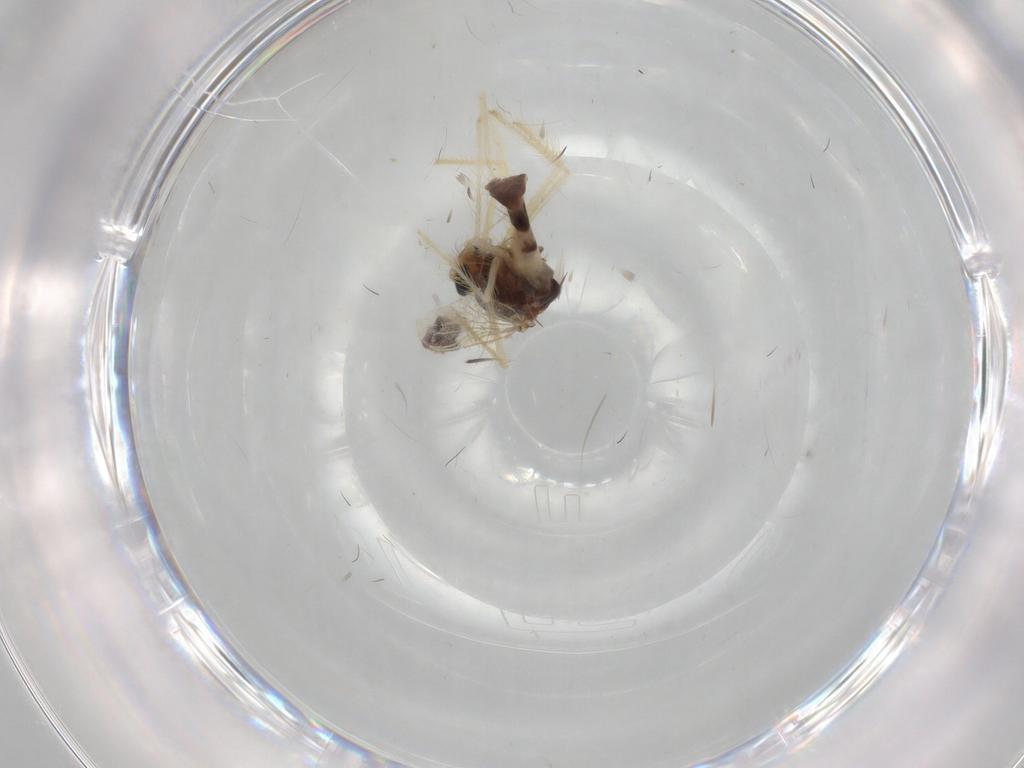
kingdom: Animalia
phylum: Arthropoda
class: Insecta
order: Diptera
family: Chironomidae
